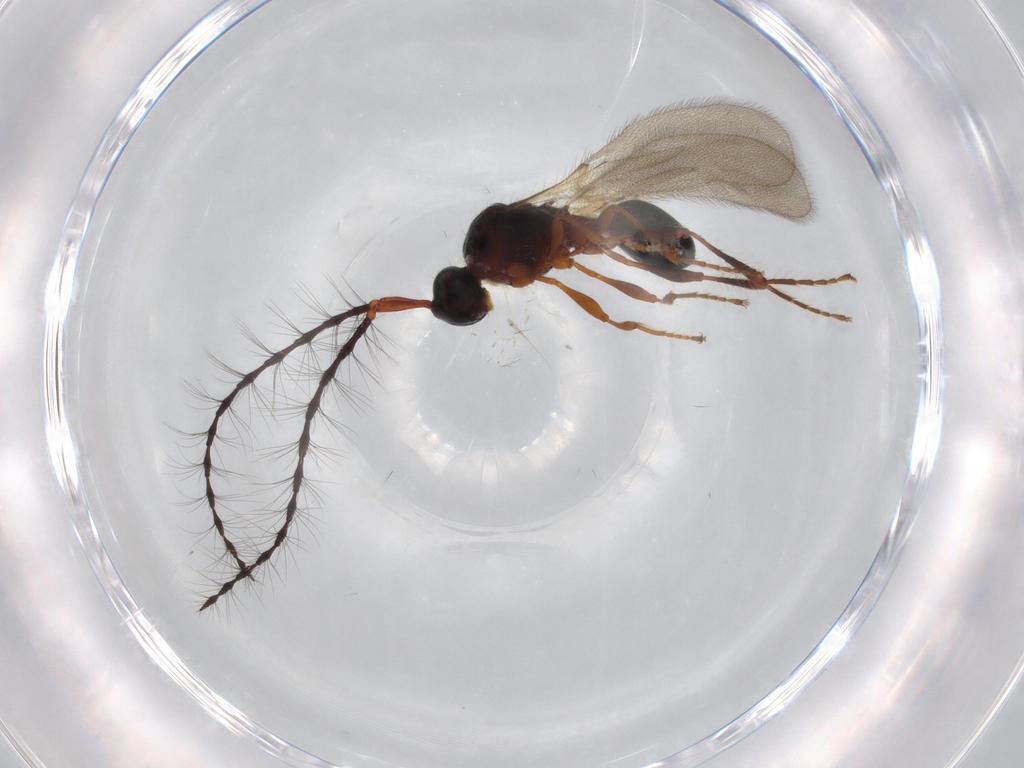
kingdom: Animalia
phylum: Arthropoda
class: Insecta
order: Hymenoptera
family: Diapriidae
